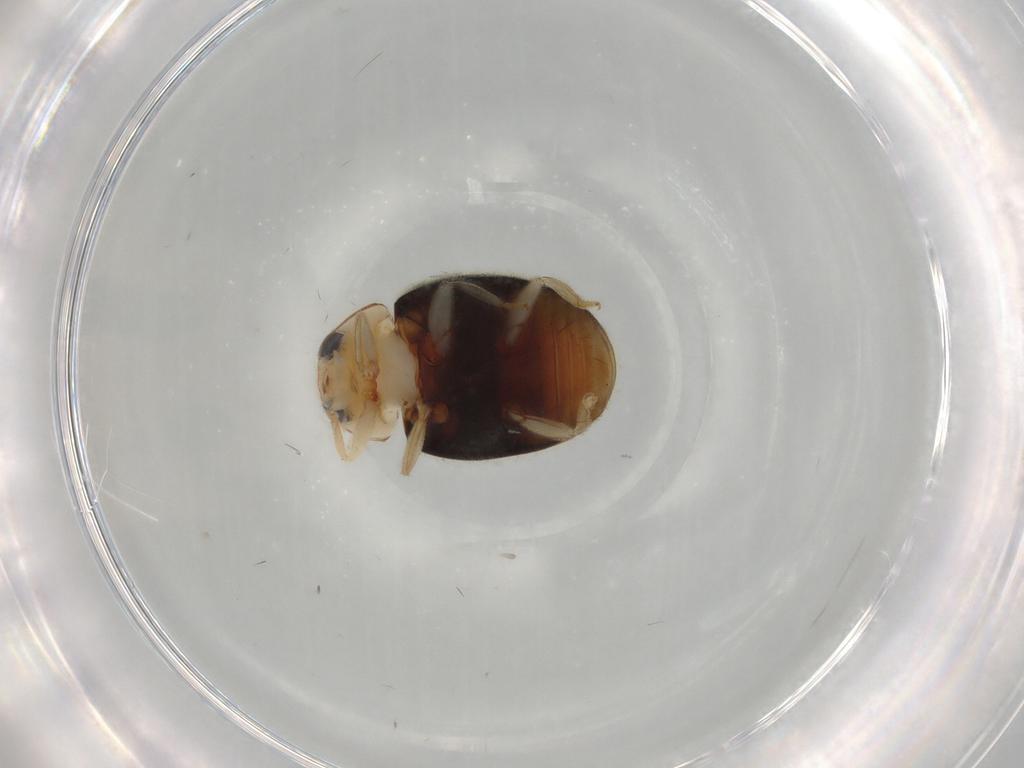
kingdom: Animalia
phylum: Arthropoda
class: Insecta
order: Coleoptera
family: Coccinellidae
